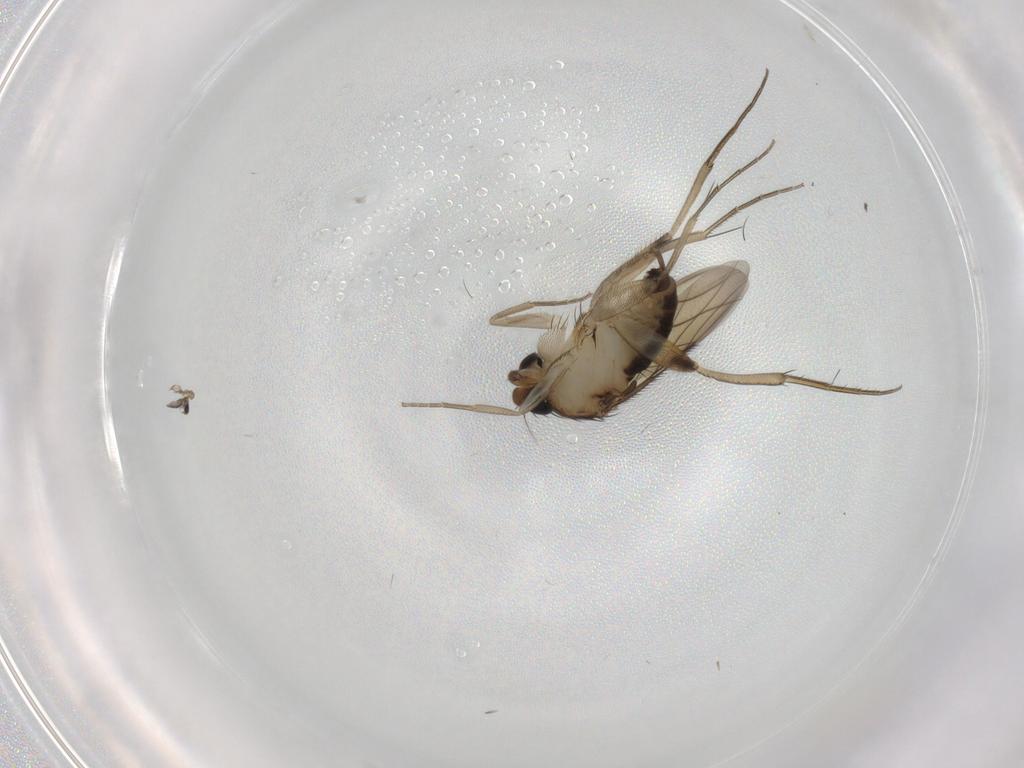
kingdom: Animalia
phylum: Arthropoda
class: Insecta
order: Diptera
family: Phoridae
